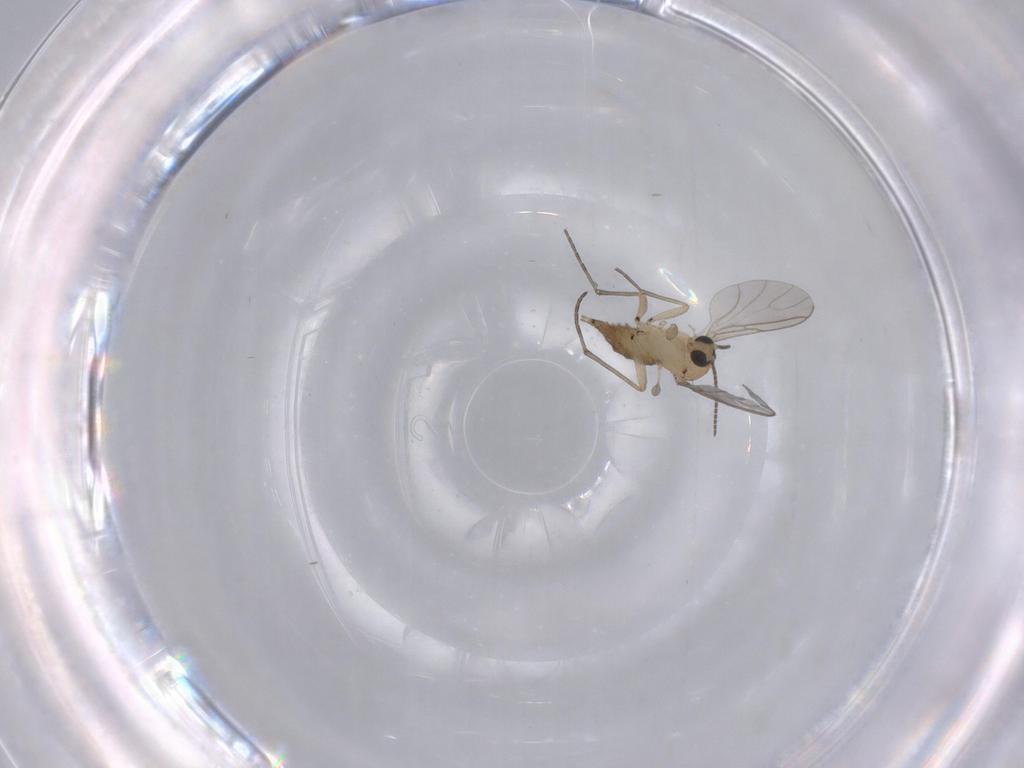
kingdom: Animalia
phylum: Arthropoda
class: Insecta
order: Diptera
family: Sciaridae
